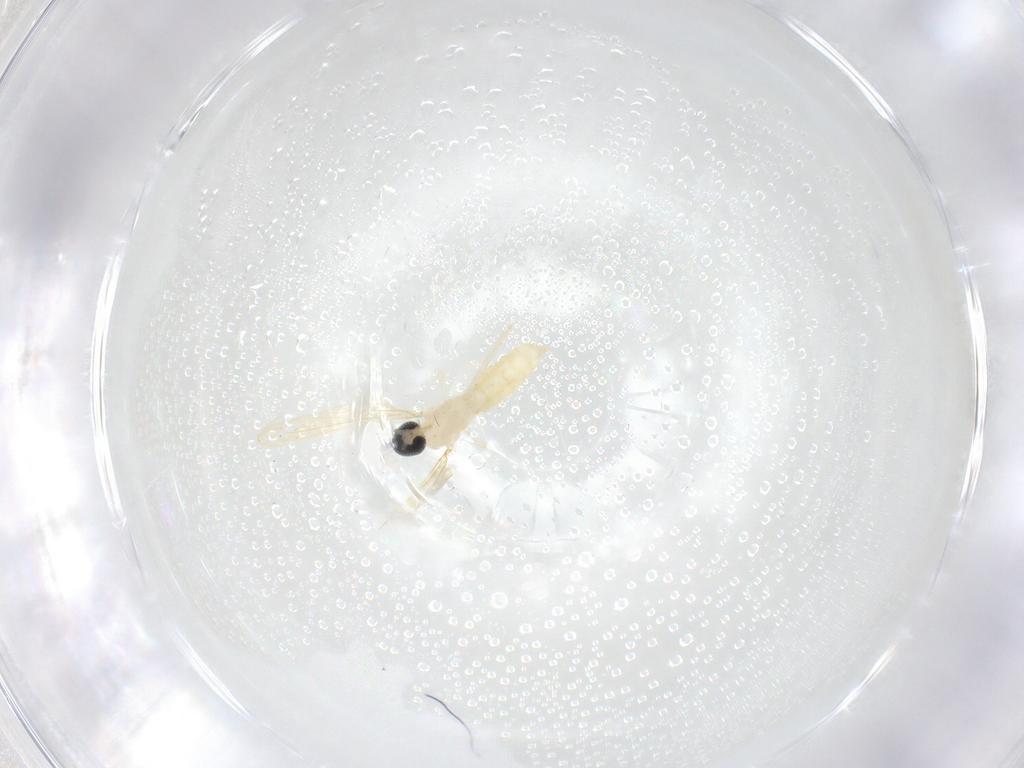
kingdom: Animalia
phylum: Arthropoda
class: Insecta
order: Diptera
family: Cecidomyiidae
